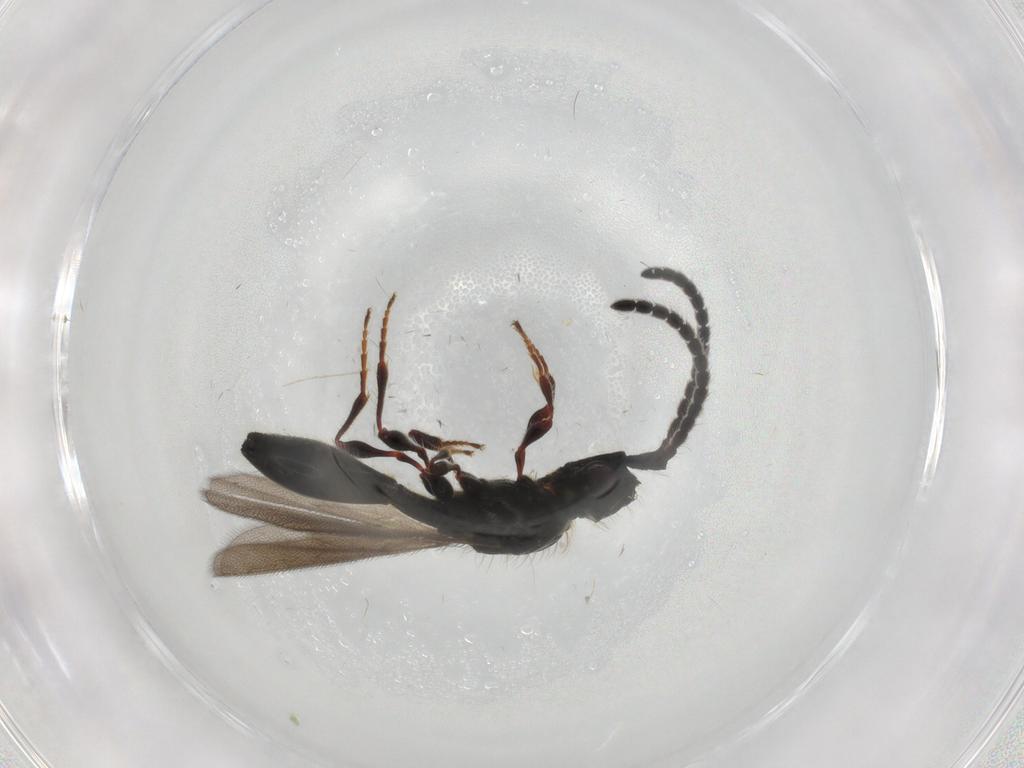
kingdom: Animalia
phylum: Arthropoda
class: Insecta
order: Hymenoptera
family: Diapriidae
